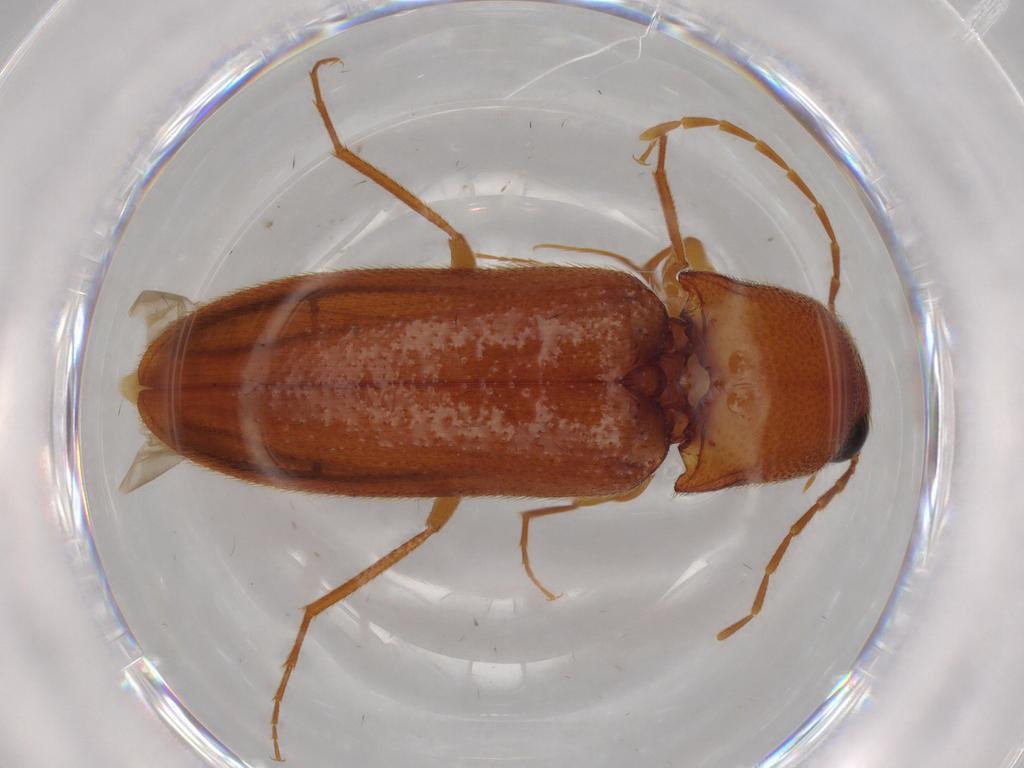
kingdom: Animalia
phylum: Arthropoda
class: Insecta
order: Coleoptera
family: Elateridae
